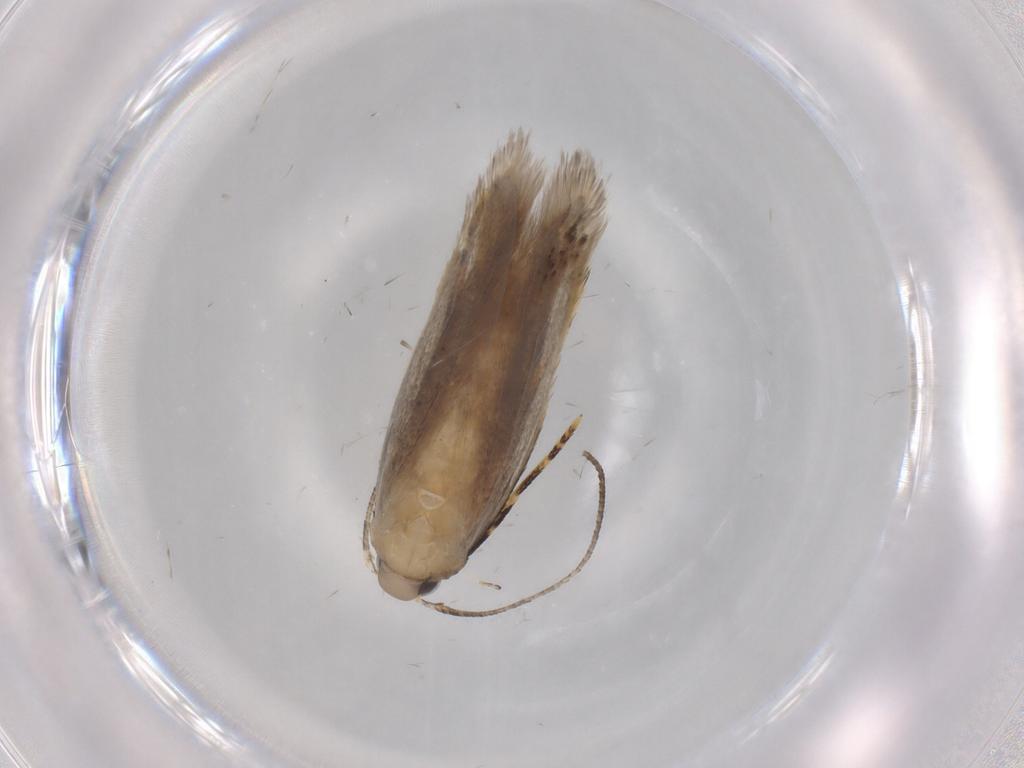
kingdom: Animalia
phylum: Arthropoda
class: Insecta
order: Lepidoptera
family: Autostichidae
